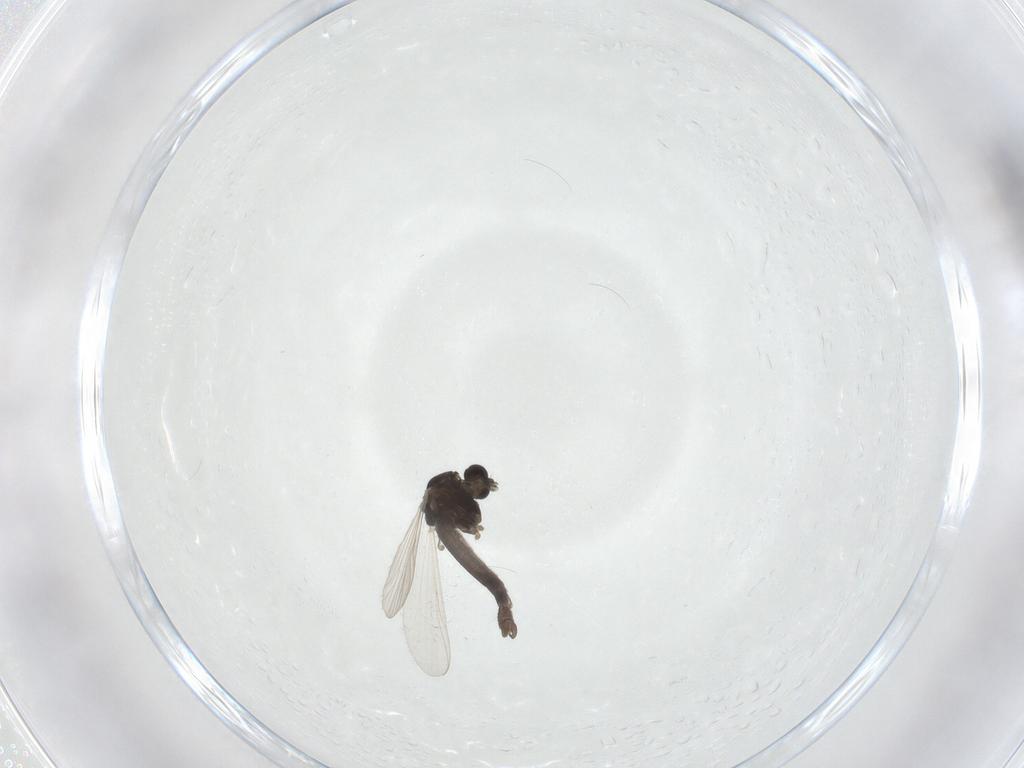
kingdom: Animalia
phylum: Arthropoda
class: Insecta
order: Diptera
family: Chironomidae
